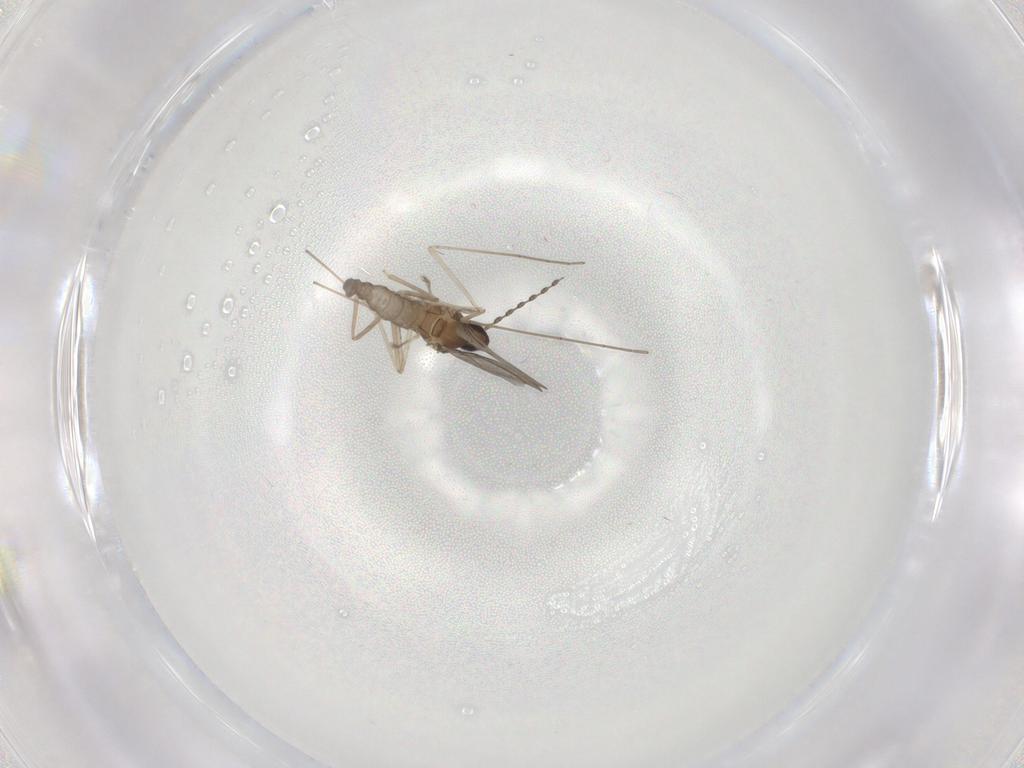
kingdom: Animalia
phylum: Arthropoda
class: Insecta
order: Diptera
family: Cecidomyiidae
